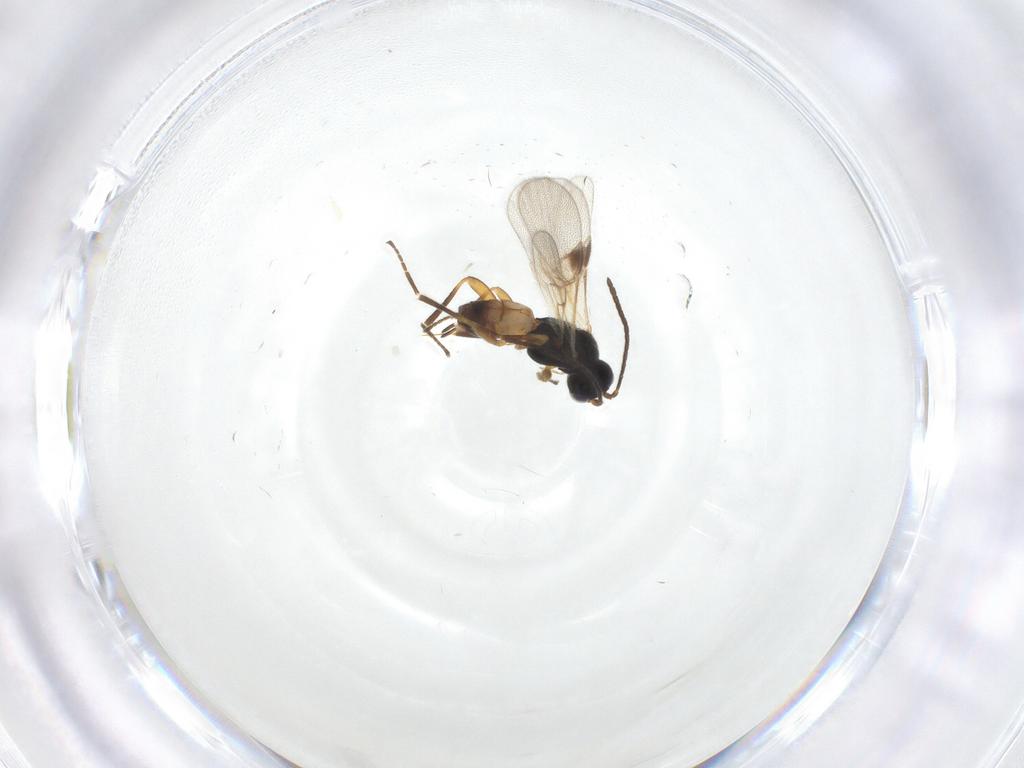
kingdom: Animalia
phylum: Arthropoda
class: Insecta
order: Hymenoptera
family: Braconidae
